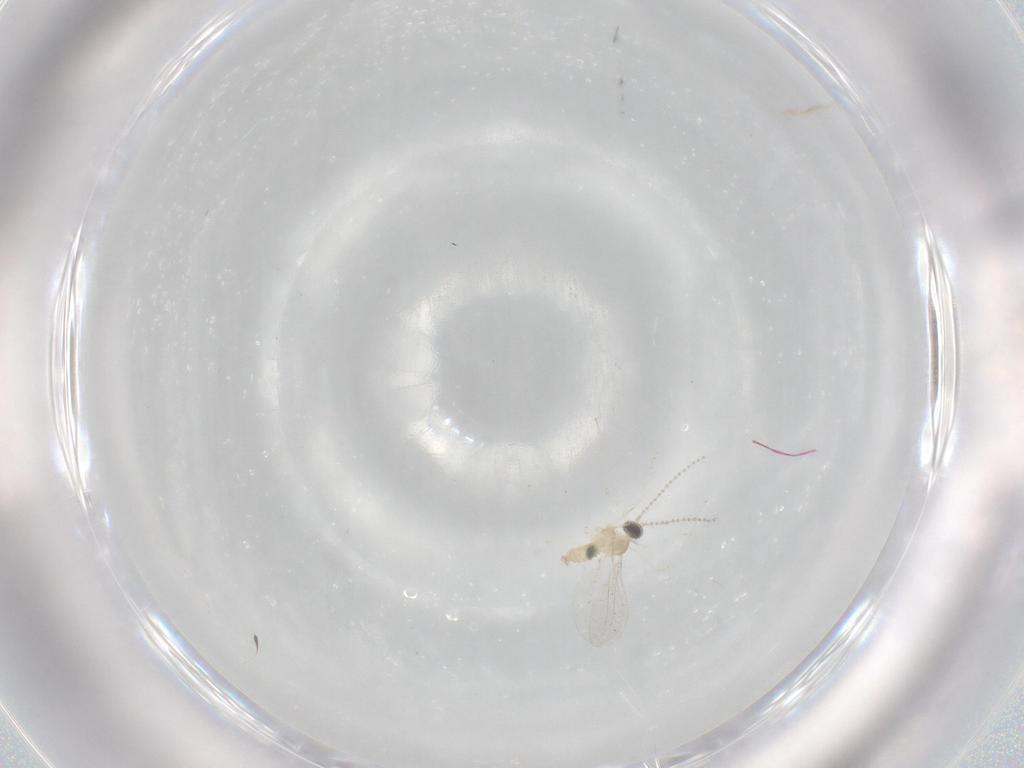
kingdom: Animalia
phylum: Arthropoda
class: Insecta
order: Diptera
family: Cecidomyiidae
